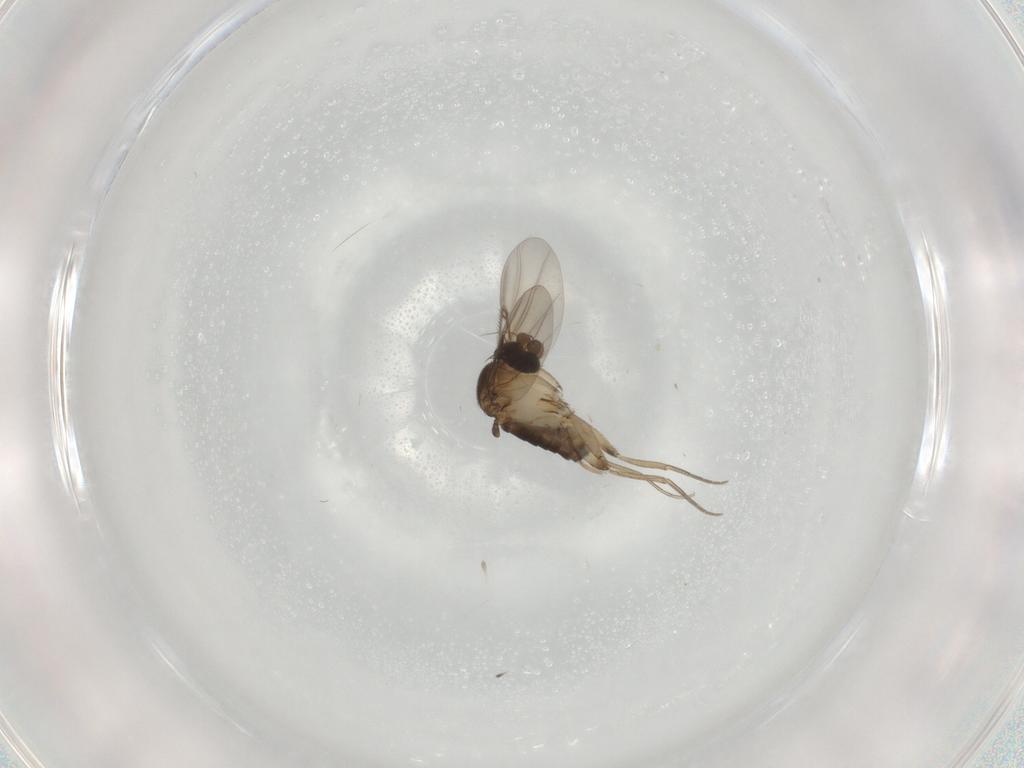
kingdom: Animalia
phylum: Arthropoda
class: Insecta
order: Diptera
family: Phoridae
